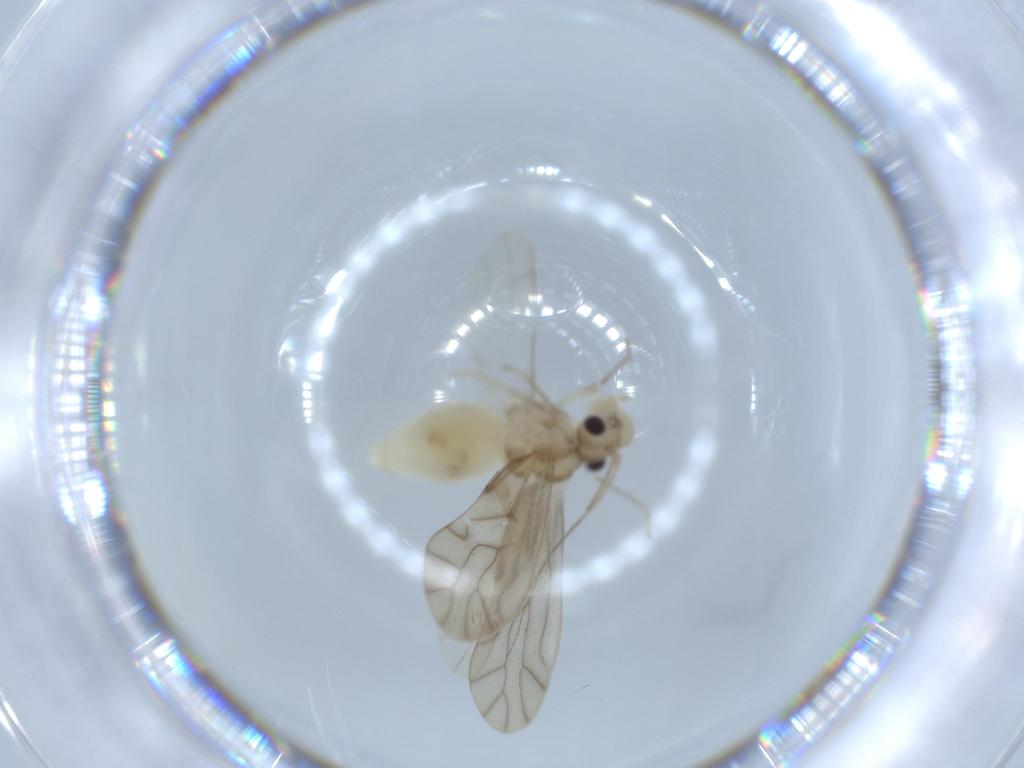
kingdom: Animalia
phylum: Arthropoda
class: Insecta
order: Psocodea
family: Caeciliusidae
